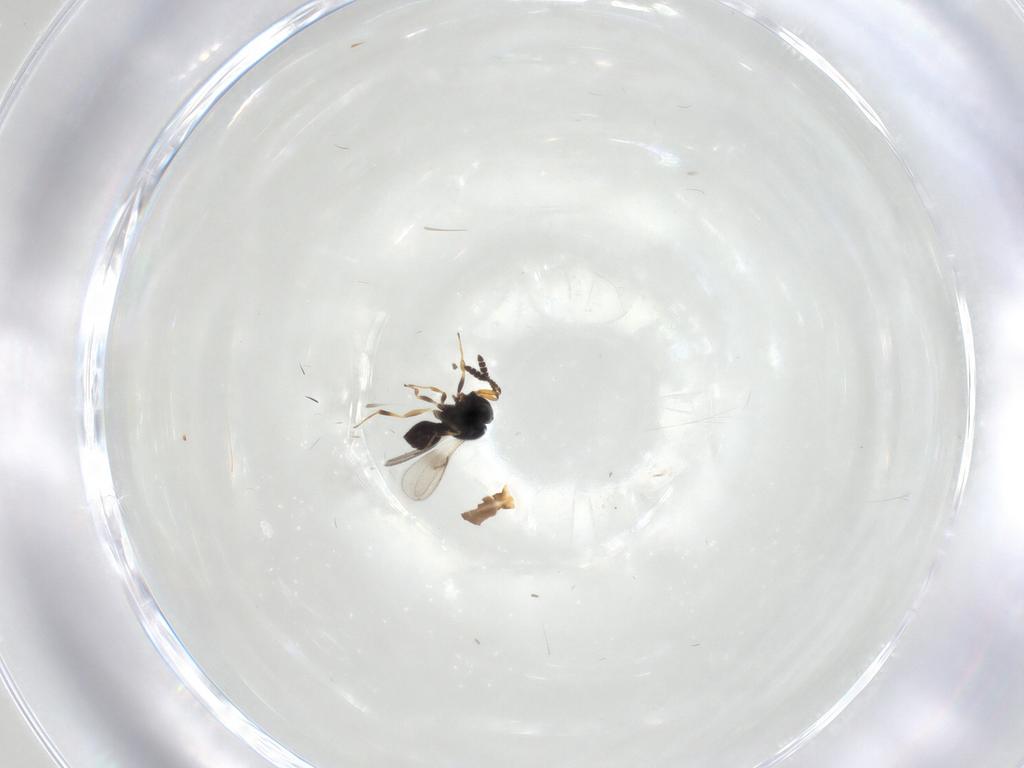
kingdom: Animalia
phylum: Arthropoda
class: Insecta
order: Hymenoptera
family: Scelionidae
